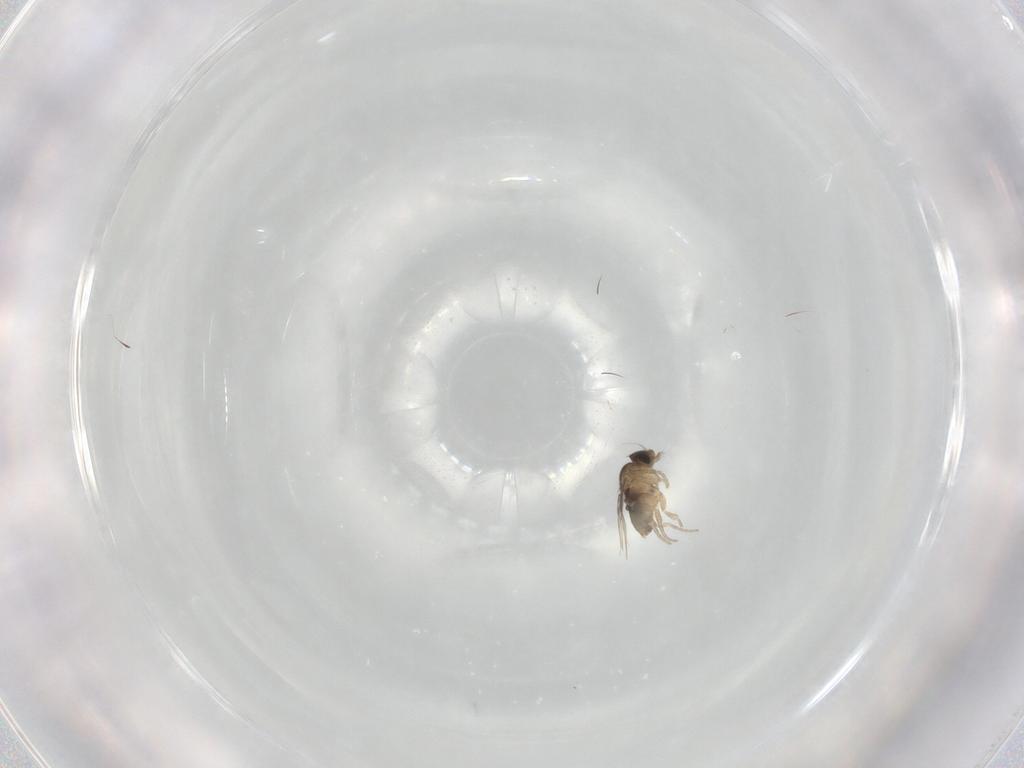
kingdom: Animalia
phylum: Arthropoda
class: Insecta
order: Diptera
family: Phoridae
